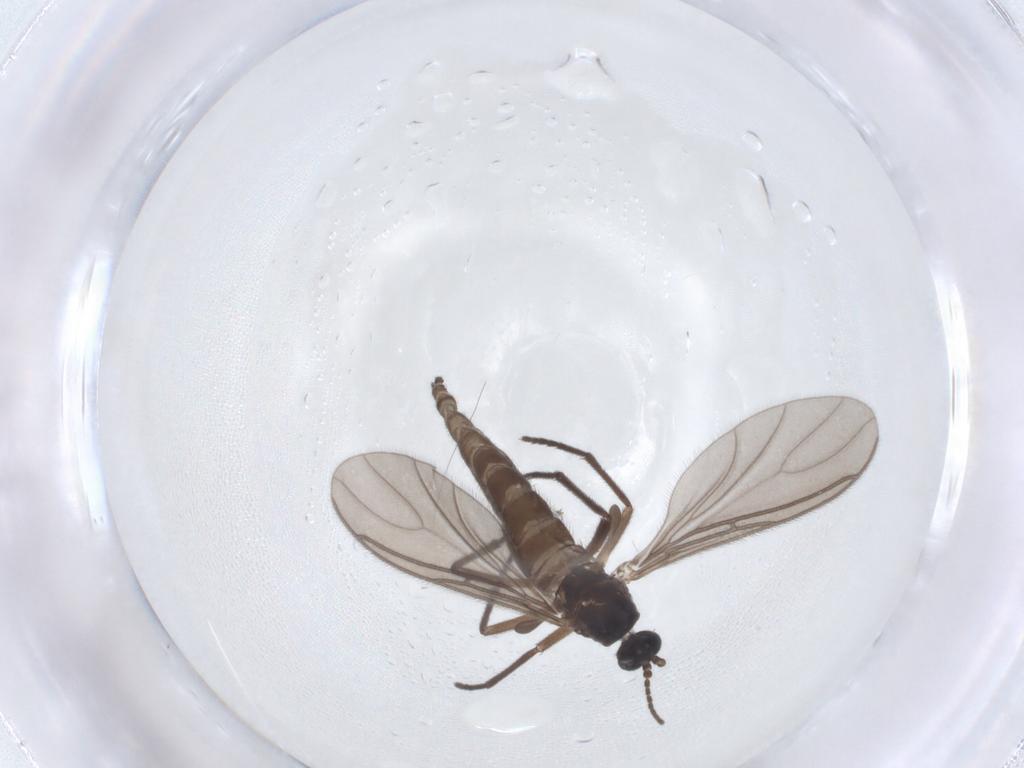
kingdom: Animalia
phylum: Arthropoda
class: Insecta
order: Diptera
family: Sciaridae
